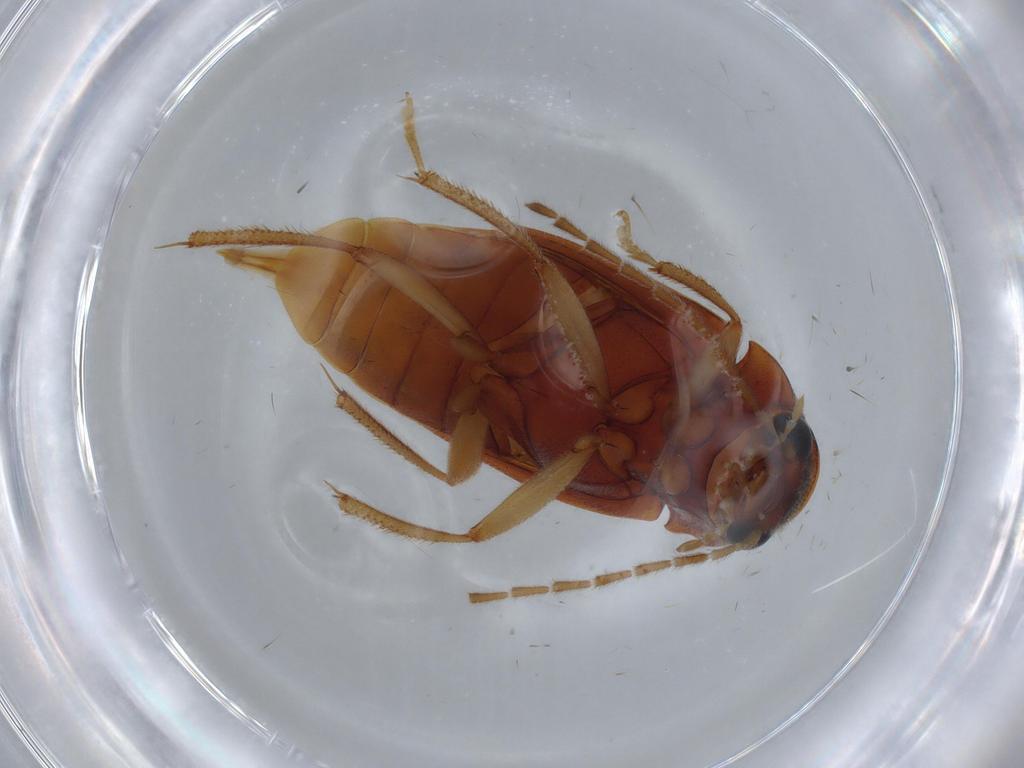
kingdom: Animalia
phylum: Arthropoda
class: Insecta
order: Coleoptera
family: Ptilodactylidae
